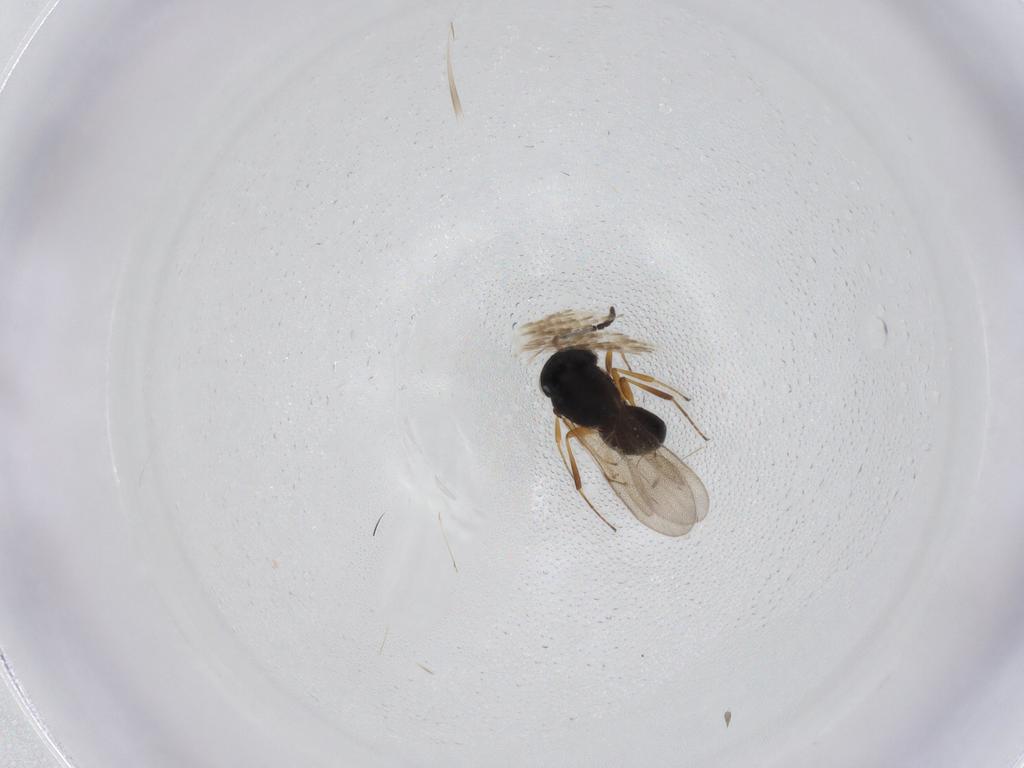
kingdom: Animalia
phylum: Arthropoda
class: Insecta
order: Hymenoptera
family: Scelionidae
